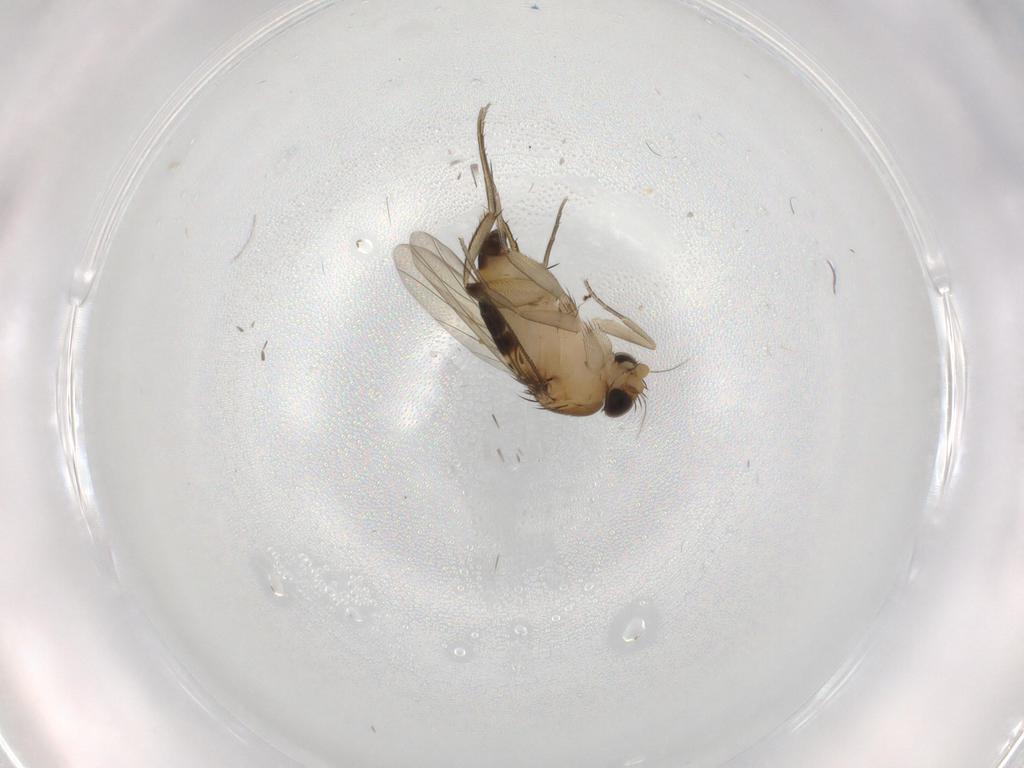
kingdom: Animalia
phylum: Arthropoda
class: Insecta
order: Diptera
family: Phoridae
